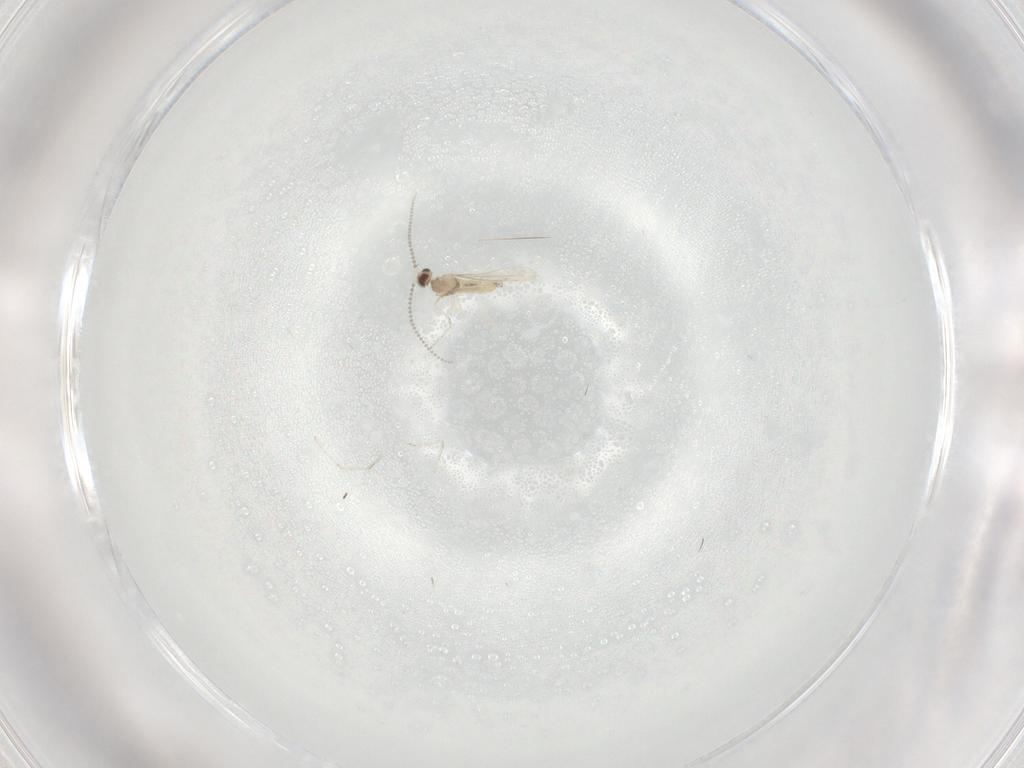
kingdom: Animalia
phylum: Arthropoda
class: Insecta
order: Diptera
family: Cecidomyiidae
